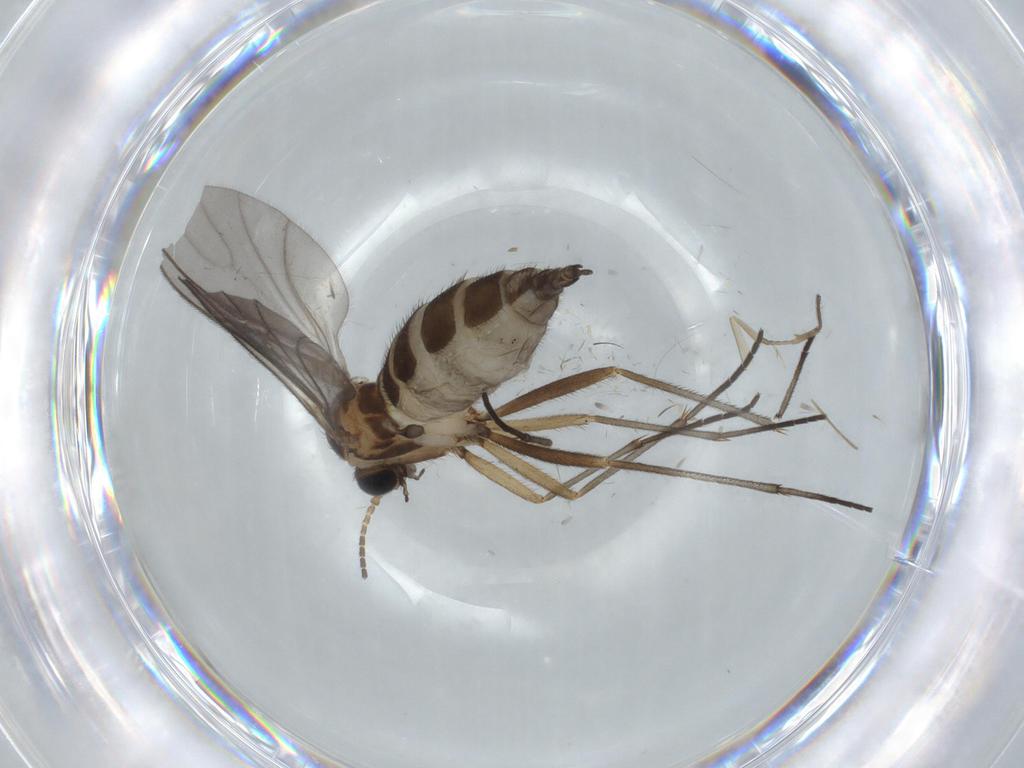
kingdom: Animalia
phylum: Arthropoda
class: Insecta
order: Diptera
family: Sciaridae
